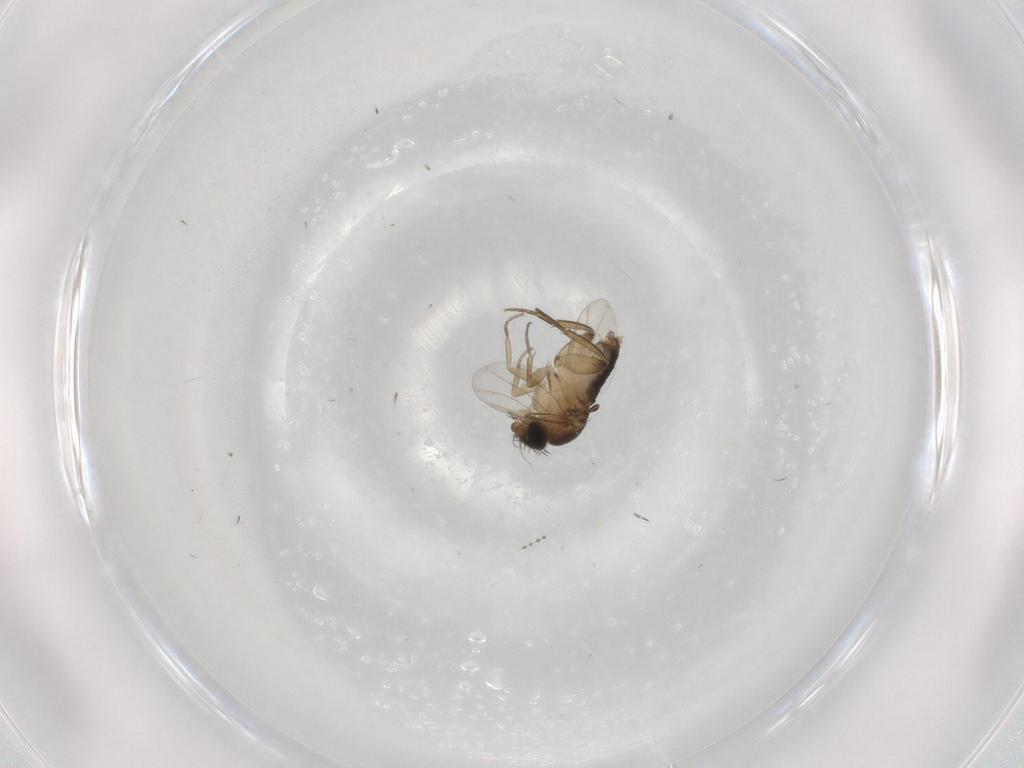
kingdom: Animalia
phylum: Arthropoda
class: Insecta
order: Diptera
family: Phoridae
